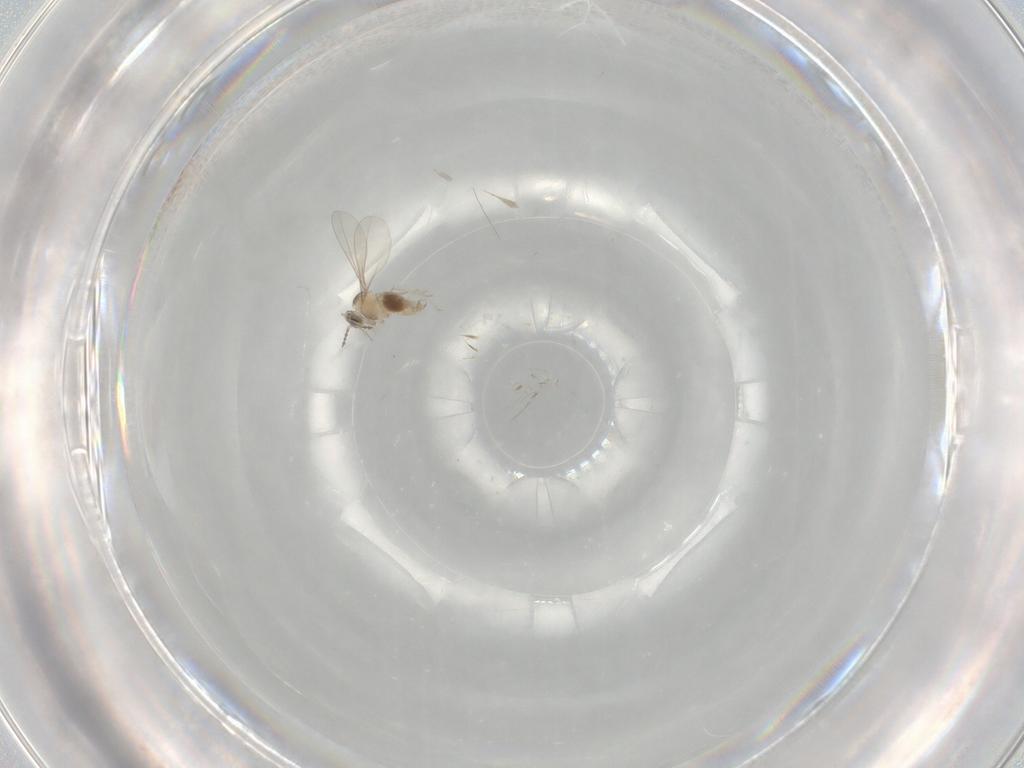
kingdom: Animalia
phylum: Arthropoda
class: Insecta
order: Diptera
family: Cecidomyiidae
